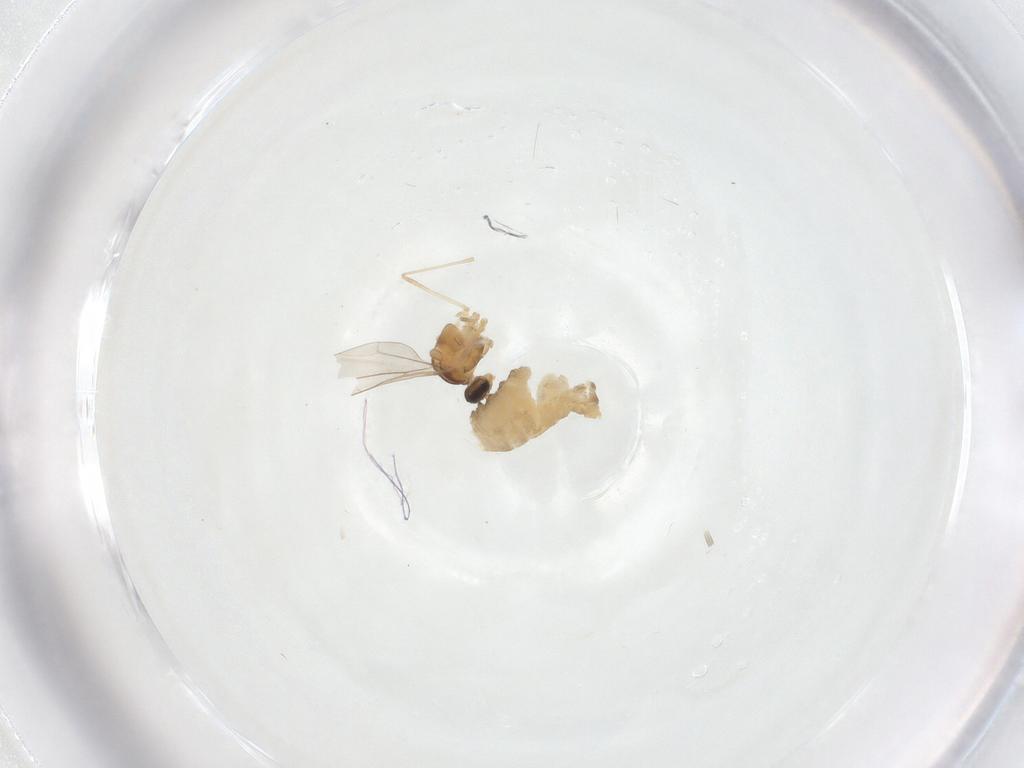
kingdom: Animalia
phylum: Arthropoda
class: Insecta
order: Diptera
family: Cecidomyiidae
